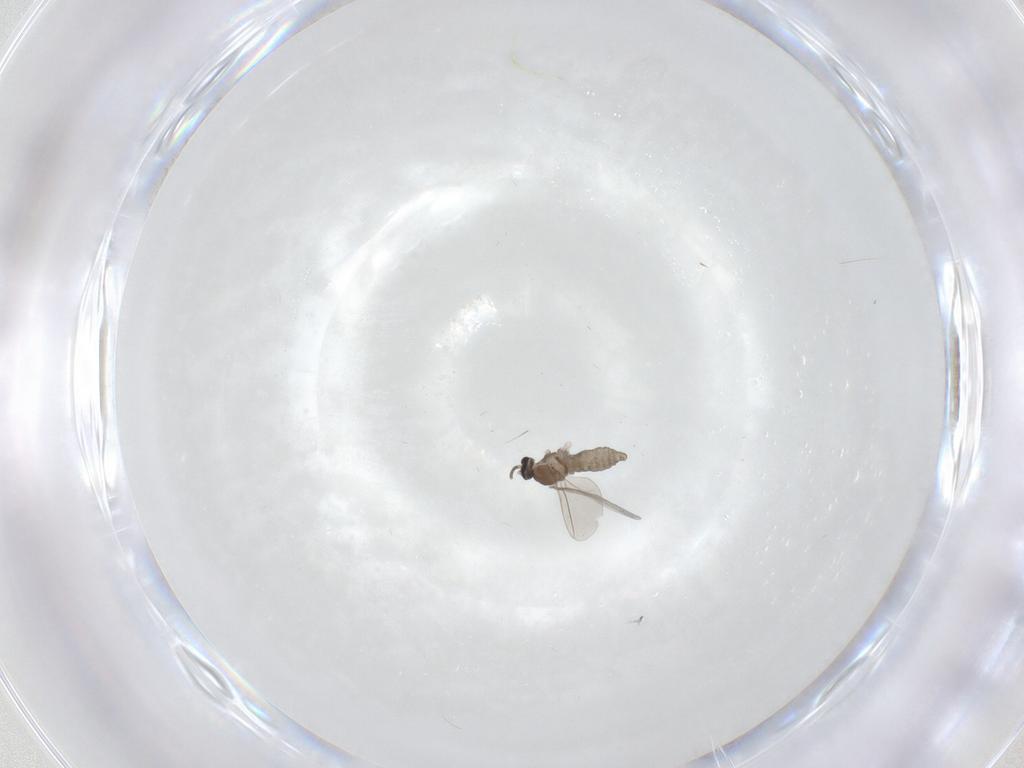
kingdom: Animalia
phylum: Arthropoda
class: Insecta
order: Diptera
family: Cecidomyiidae
